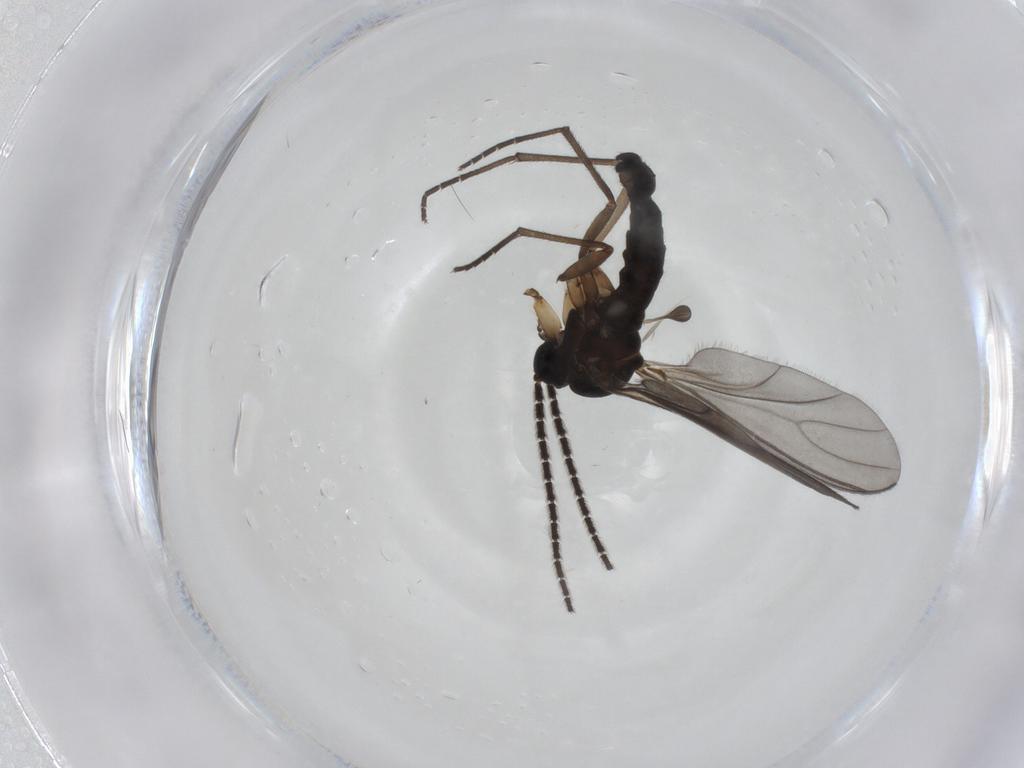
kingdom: Animalia
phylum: Arthropoda
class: Insecta
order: Diptera
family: Sciaridae
